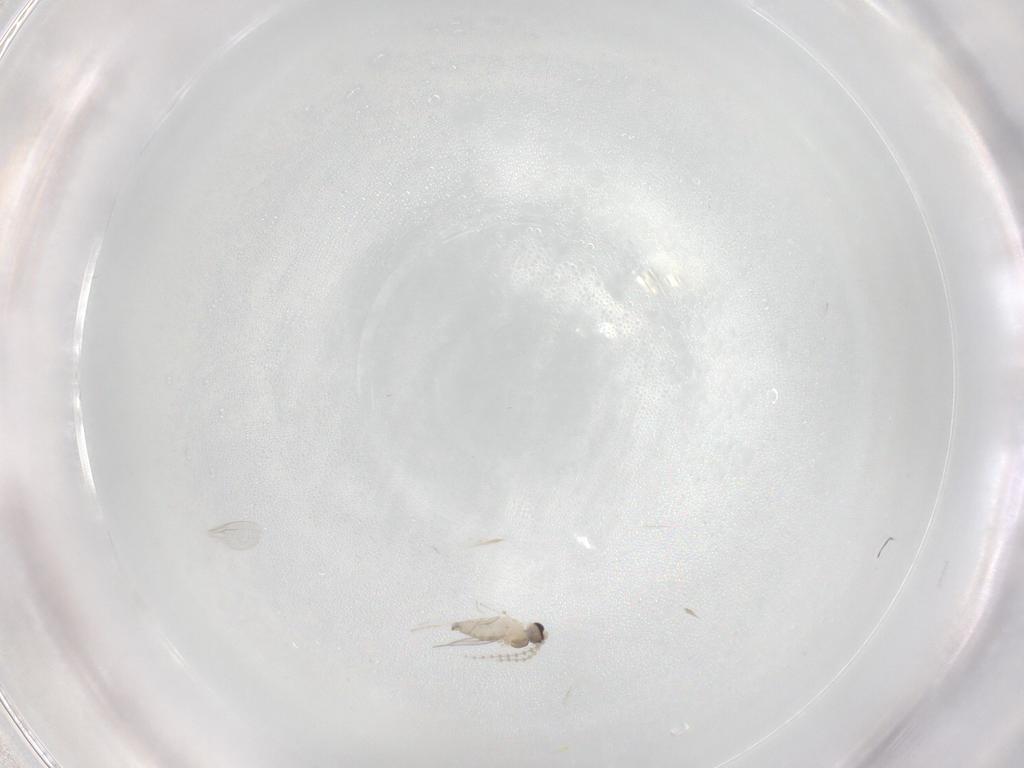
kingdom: Animalia
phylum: Arthropoda
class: Insecta
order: Diptera
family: Cecidomyiidae
